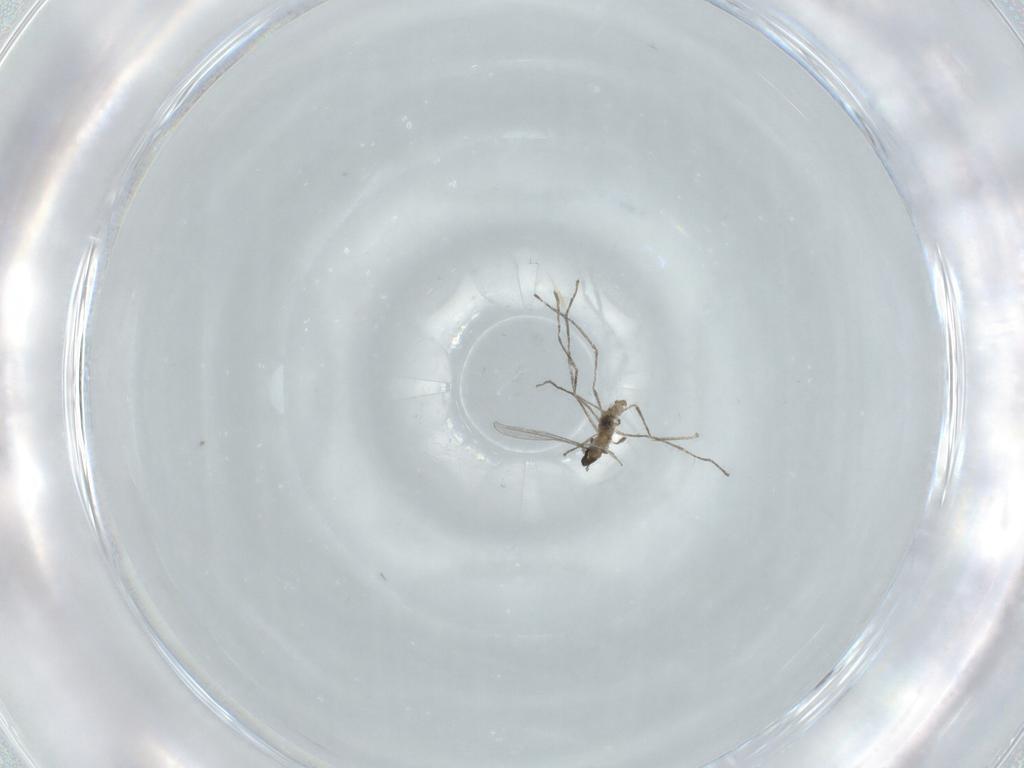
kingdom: Animalia
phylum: Arthropoda
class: Insecta
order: Diptera
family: Cecidomyiidae
